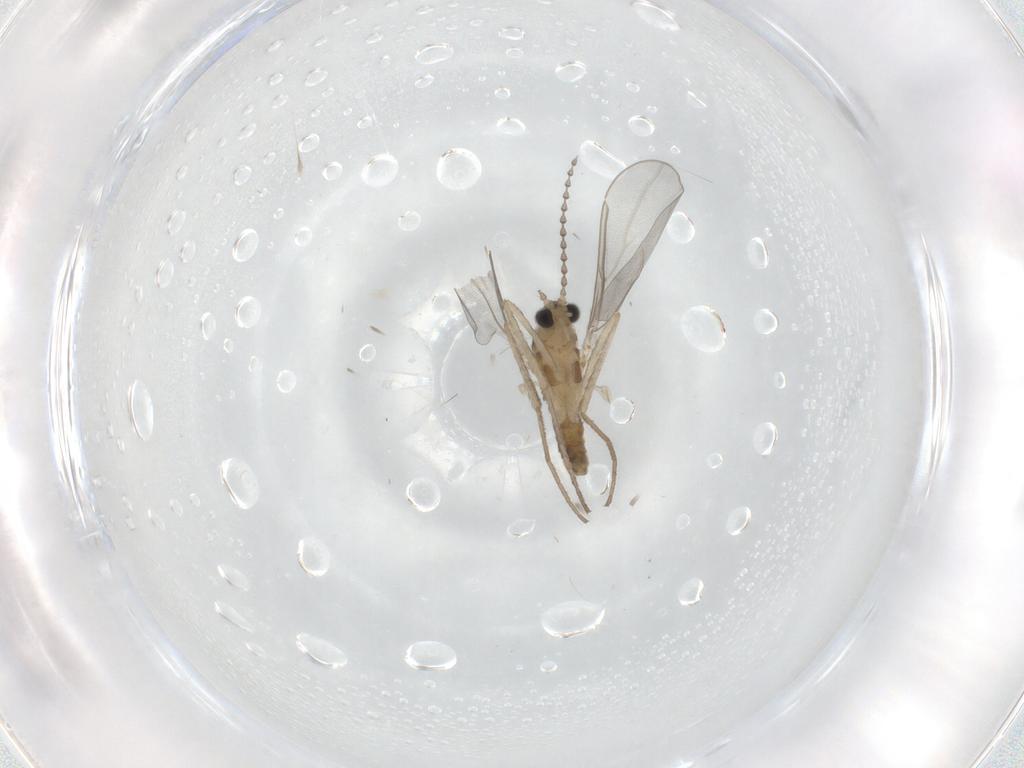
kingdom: Animalia
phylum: Arthropoda
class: Insecta
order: Diptera
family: Cecidomyiidae
